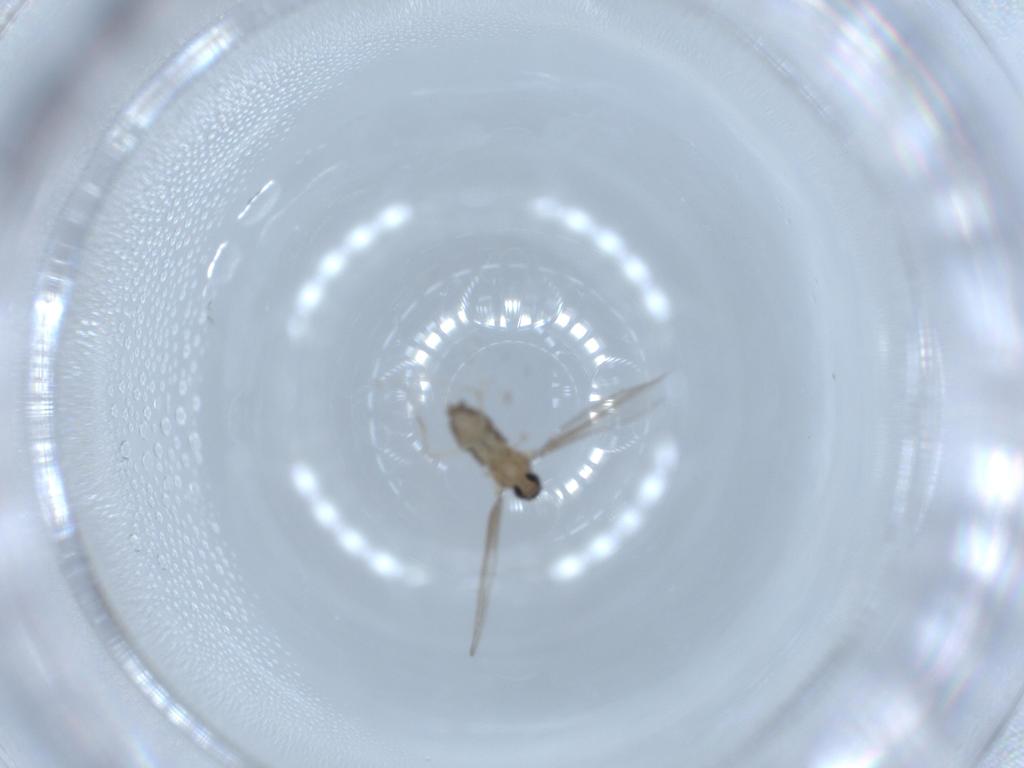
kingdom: Animalia
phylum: Arthropoda
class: Insecta
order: Diptera
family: Cecidomyiidae
